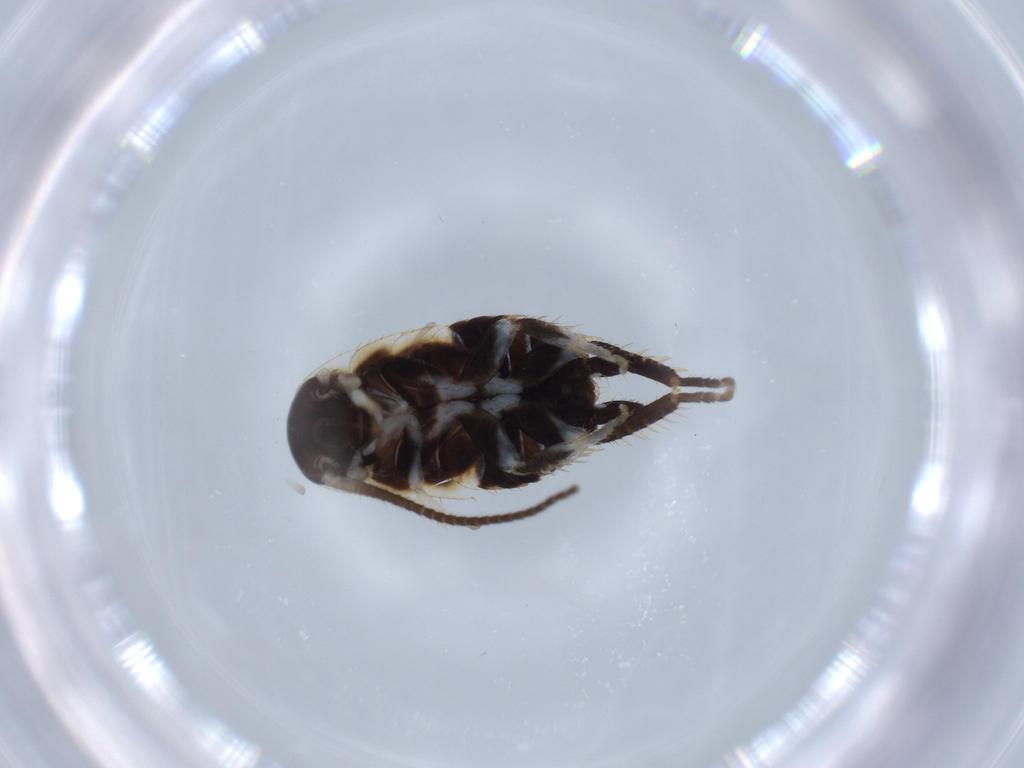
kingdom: Animalia
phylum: Arthropoda
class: Insecta
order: Blattodea
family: Ectobiidae
